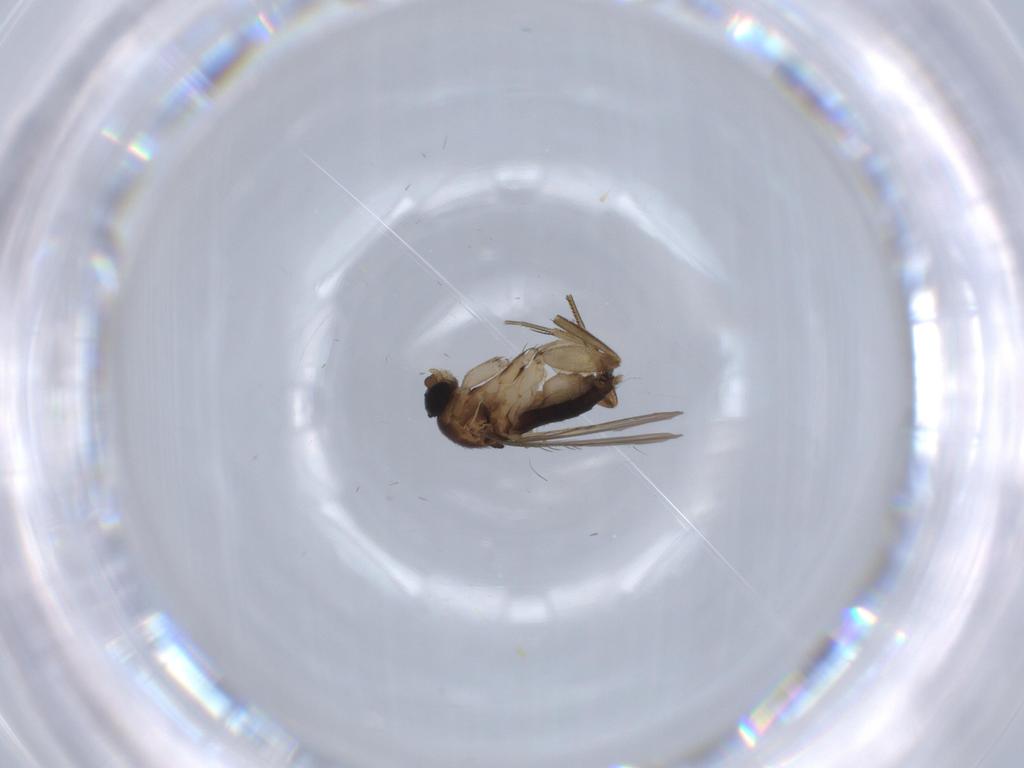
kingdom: Animalia
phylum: Arthropoda
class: Insecta
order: Diptera
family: Phoridae
